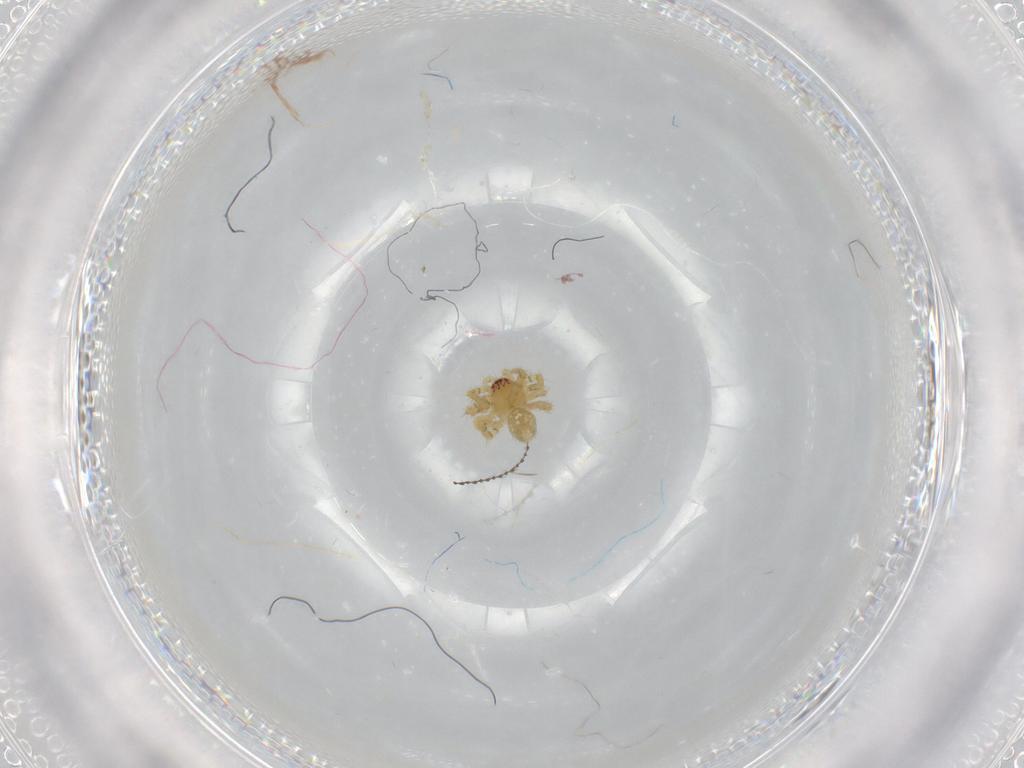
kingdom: Animalia
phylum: Arthropoda
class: Arachnida
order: Araneae
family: Theridiidae
